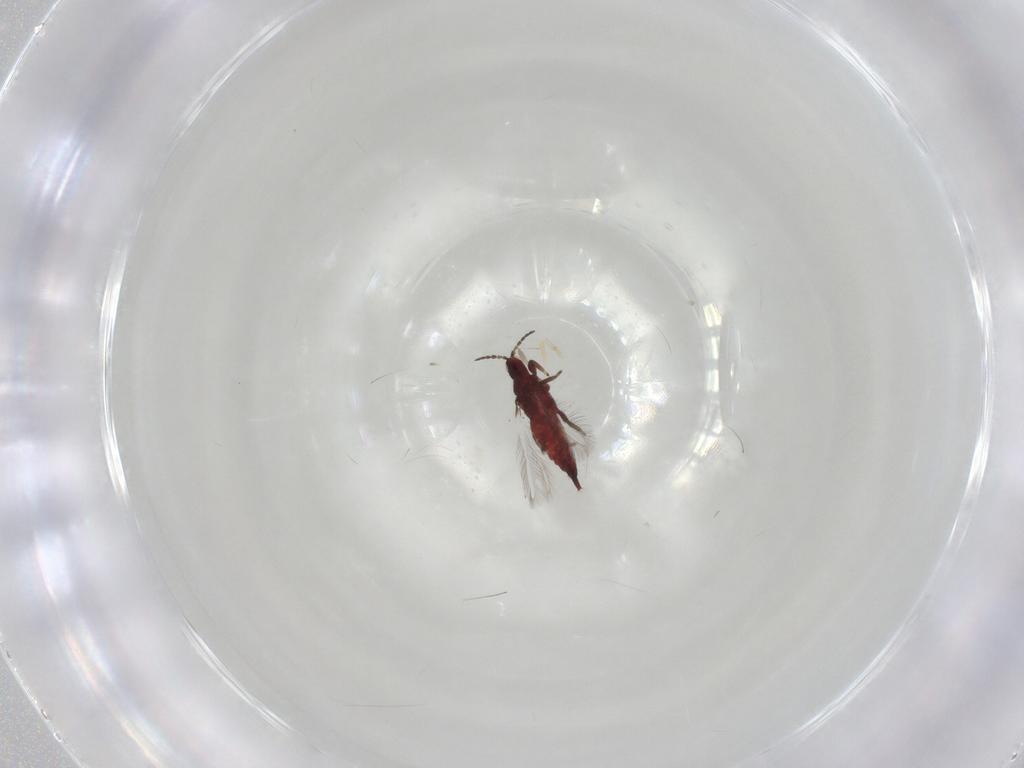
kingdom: Animalia
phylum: Arthropoda
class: Insecta
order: Thysanoptera
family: Phlaeothripidae
